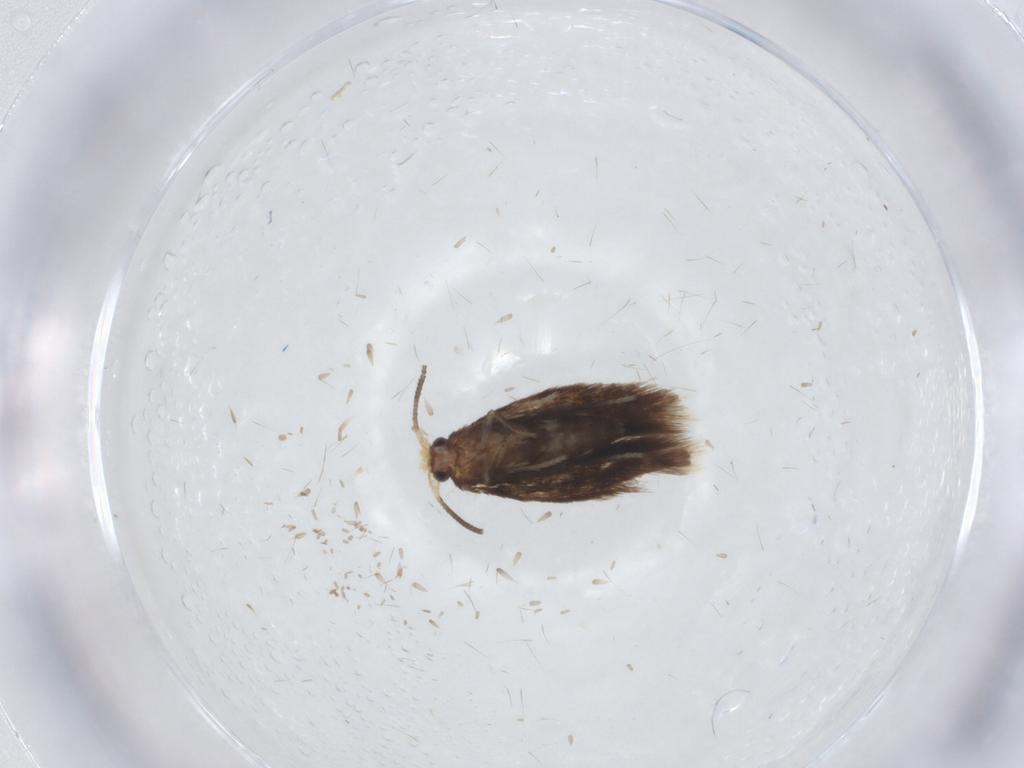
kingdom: Animalia
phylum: Arthropoda
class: Insecta
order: Lepidoptera
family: Nepticulidae
